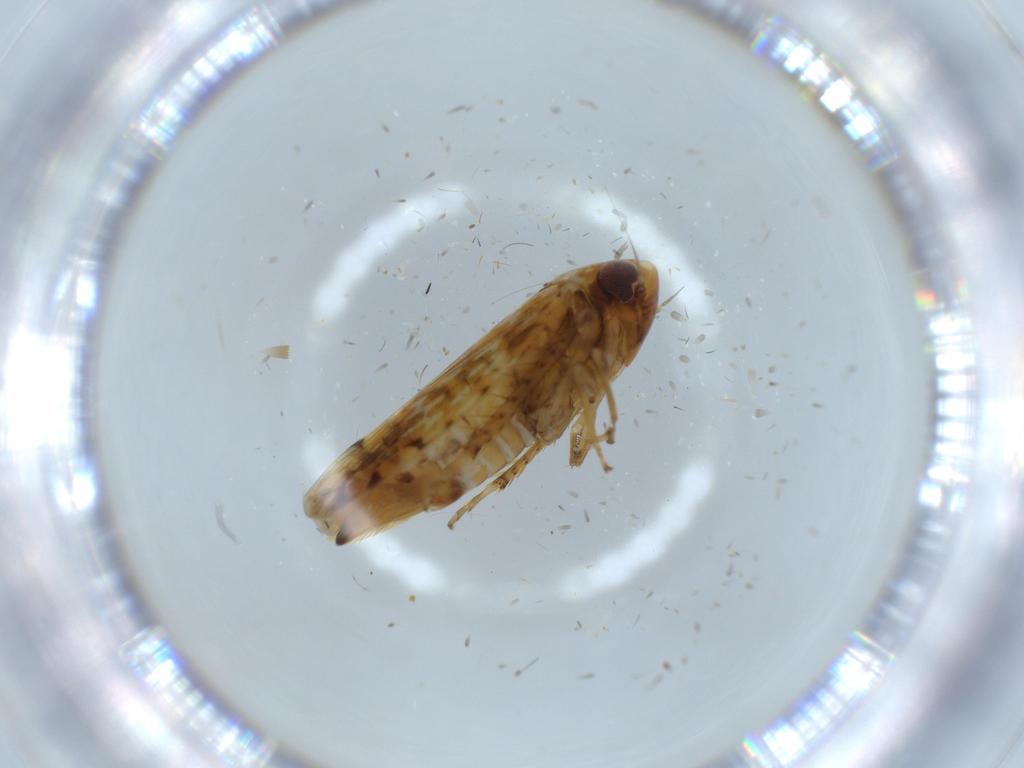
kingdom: Animalia
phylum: Arthropoda
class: Insecta
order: Hemiptera
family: Cicadellidae
